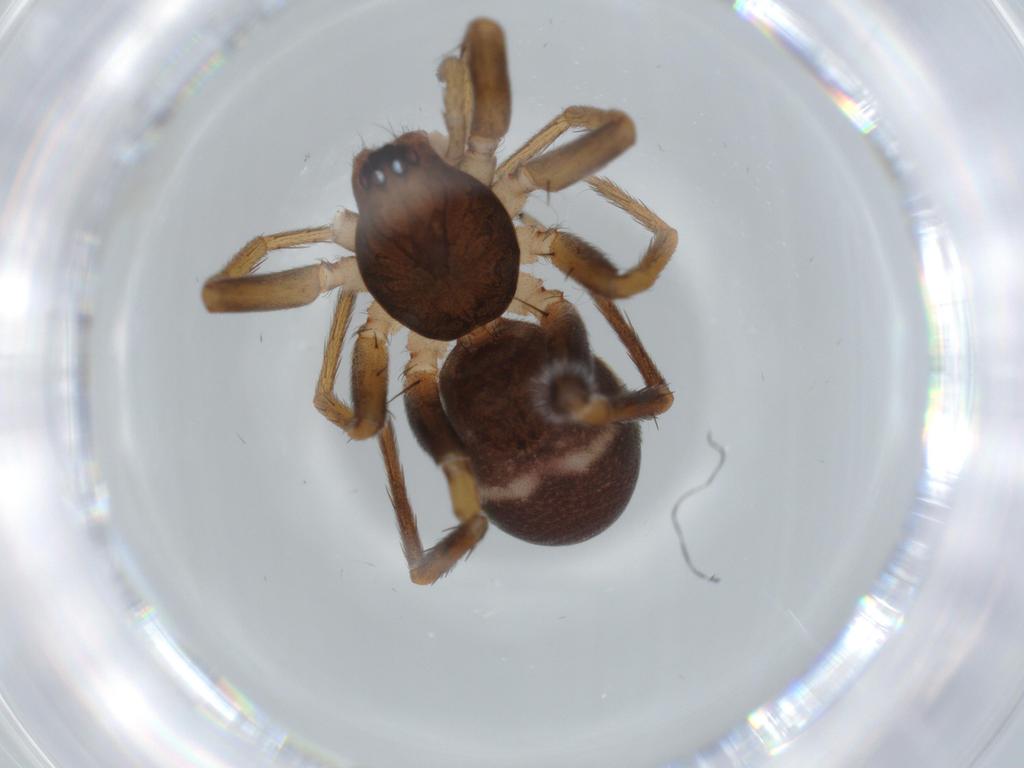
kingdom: Animalia
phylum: Arthropoda
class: Arachnida
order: Araneae
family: Corinnidae
